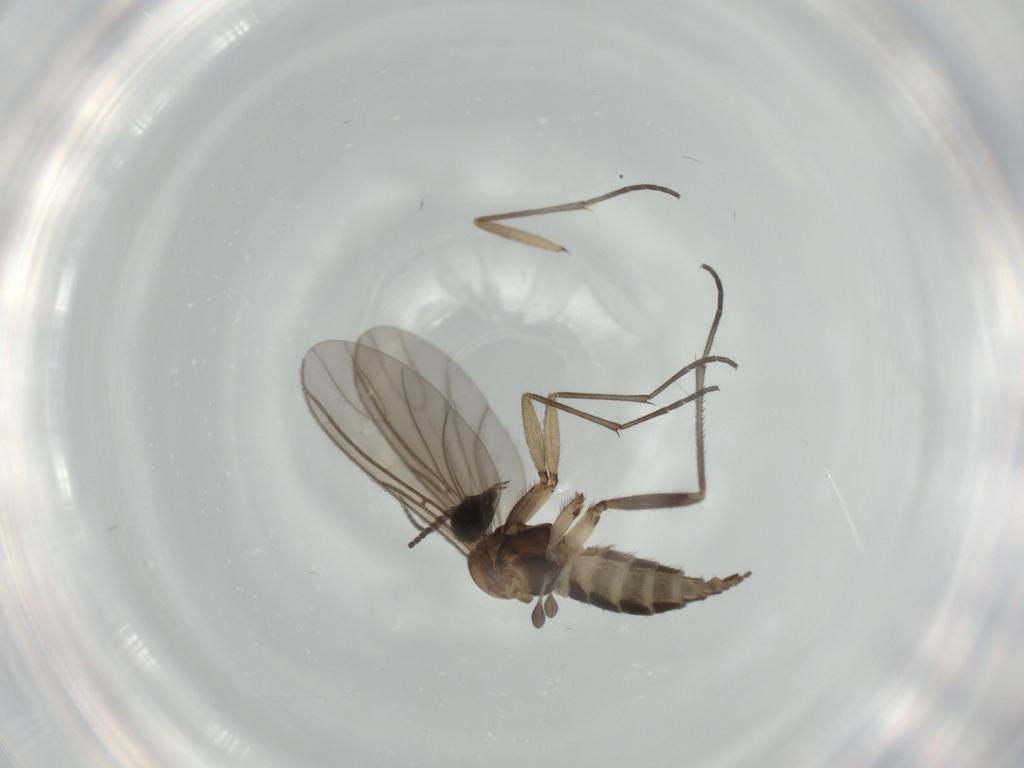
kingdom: Animalia
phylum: Arthropoda
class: Insecta
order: Diptera
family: Sciaridae
